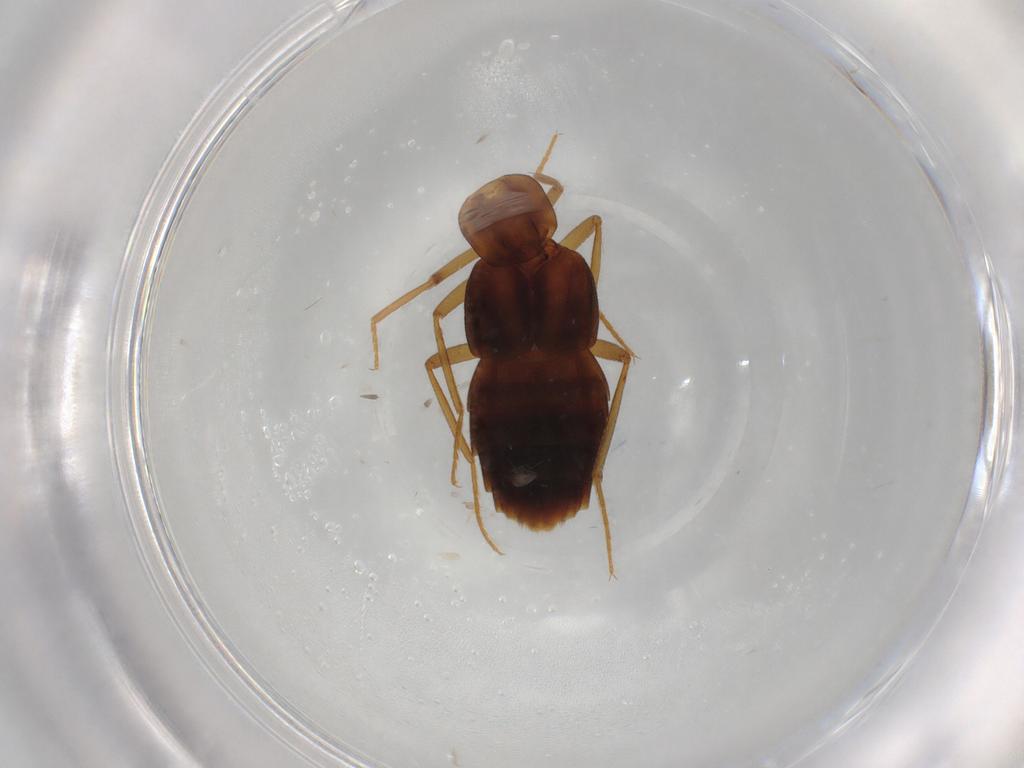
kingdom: Animalia
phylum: Arthropoda
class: Insecta
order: Coleoptera
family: Staphylinidae
